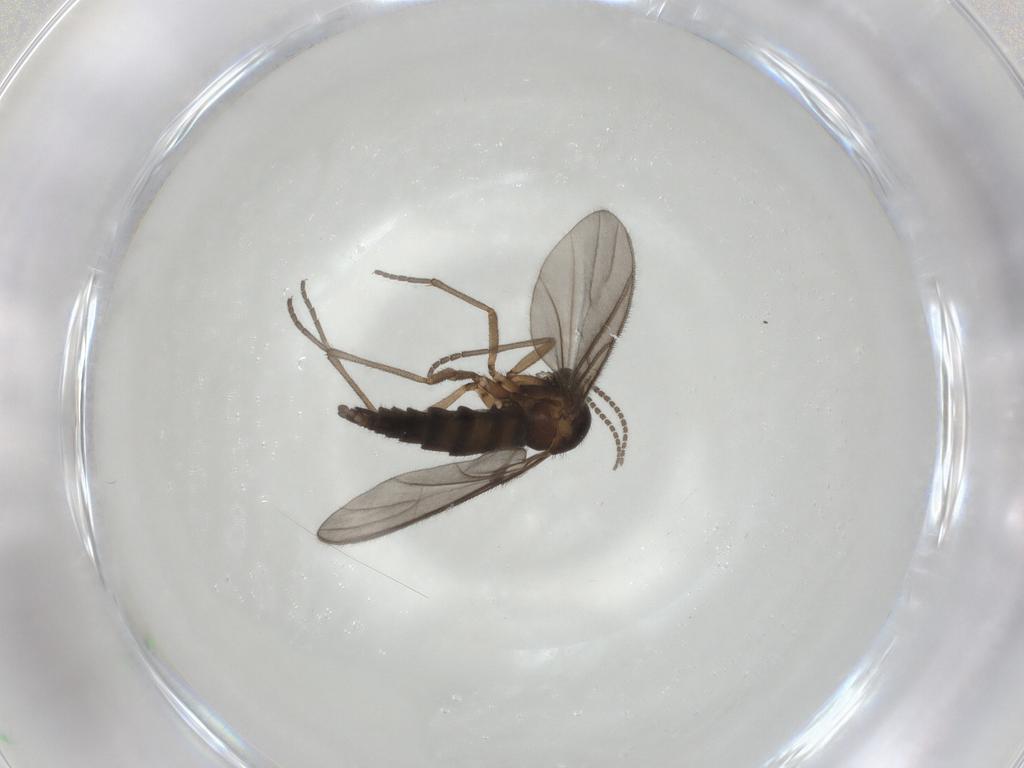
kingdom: Animalia
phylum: Arthropoda
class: Insecta
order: Diptera
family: Sciaridae
